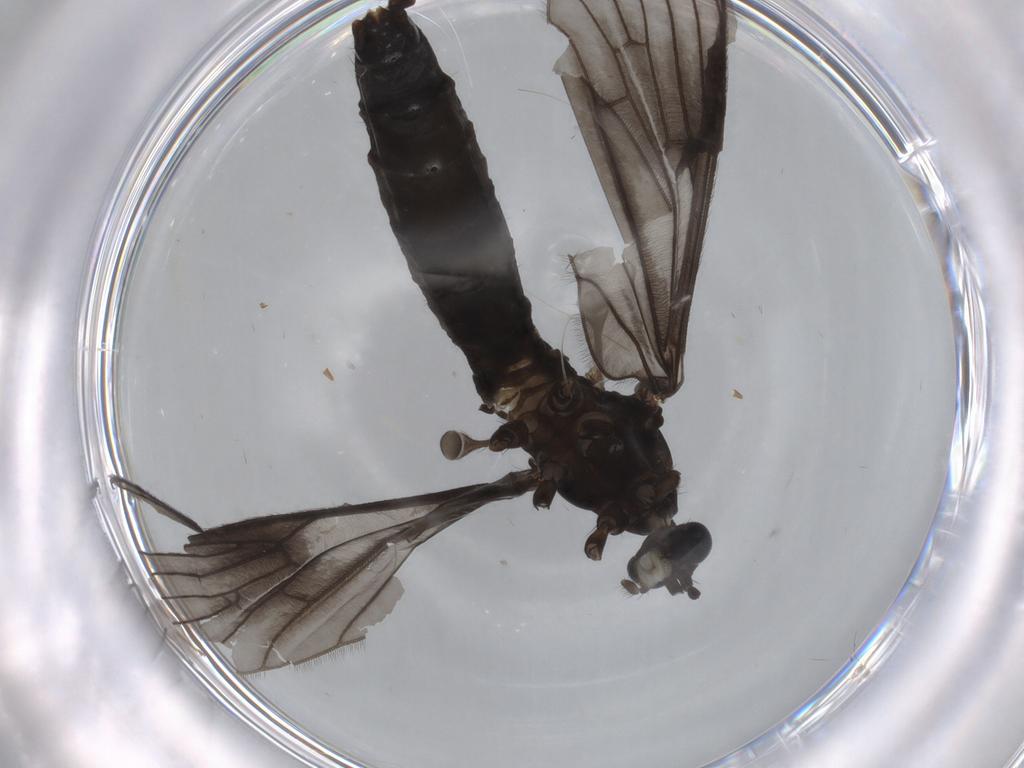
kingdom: Animalia
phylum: Arthropoda
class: Insecta
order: Diptera
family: Limoniidae
